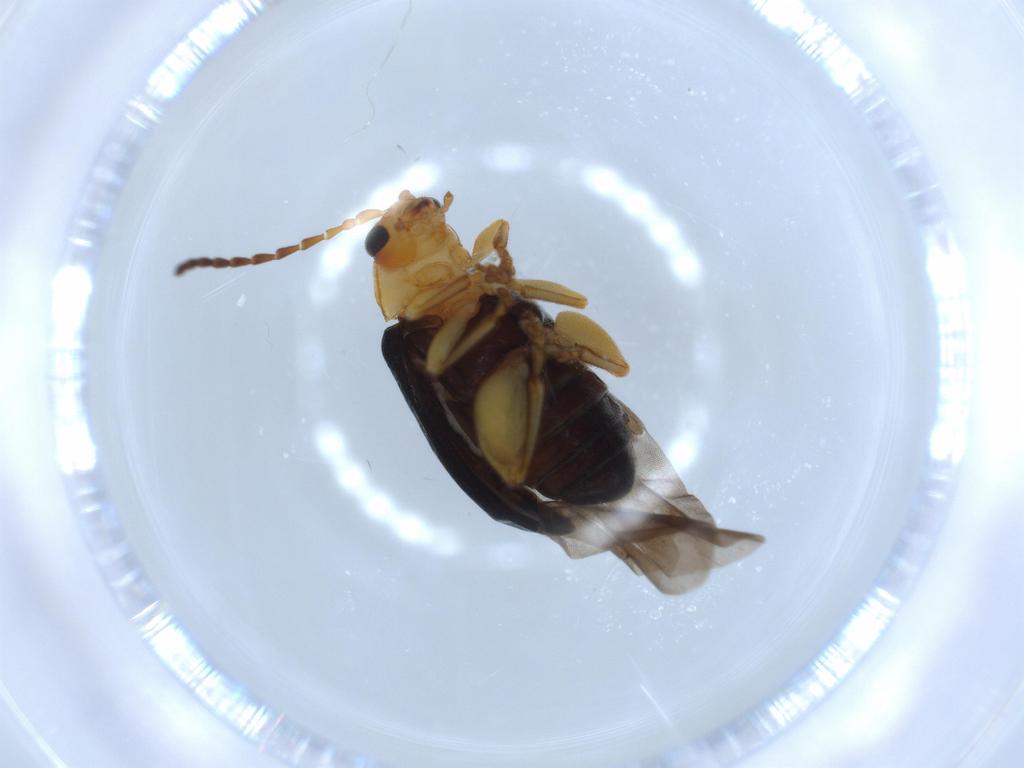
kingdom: Animalia
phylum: Arthropoda
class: Insecta
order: Coleoptera
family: Chrysomelidae
